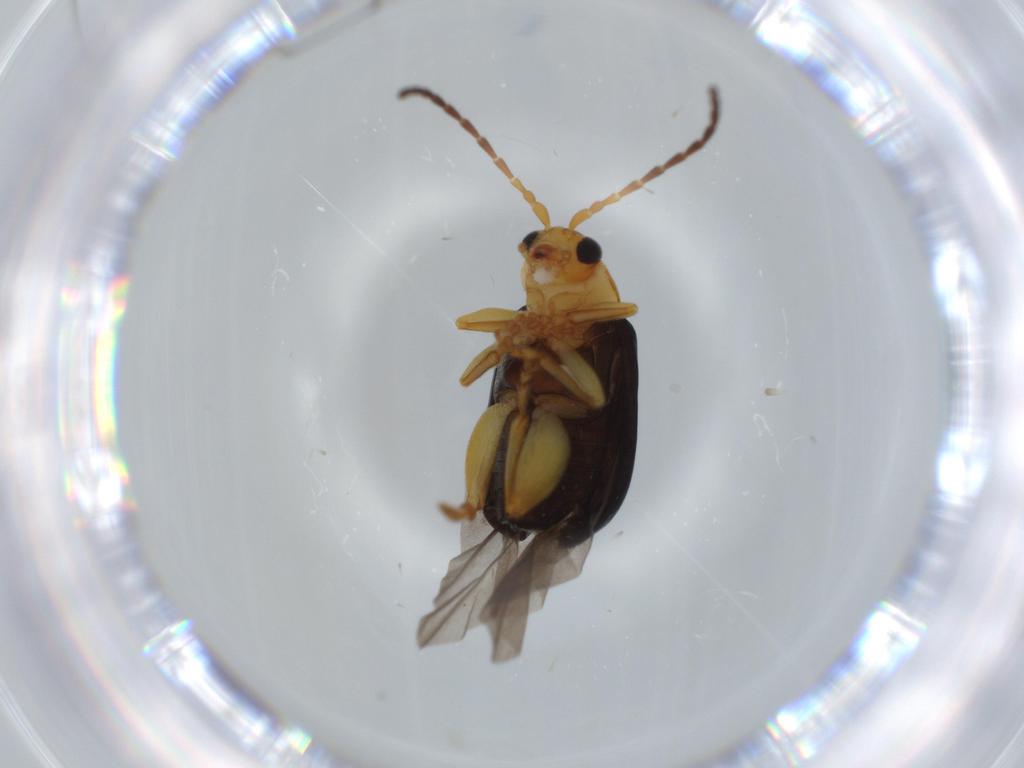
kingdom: Animalia
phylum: Arthropoda
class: Insecta
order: Coleoptera
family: Chrysomelidae
